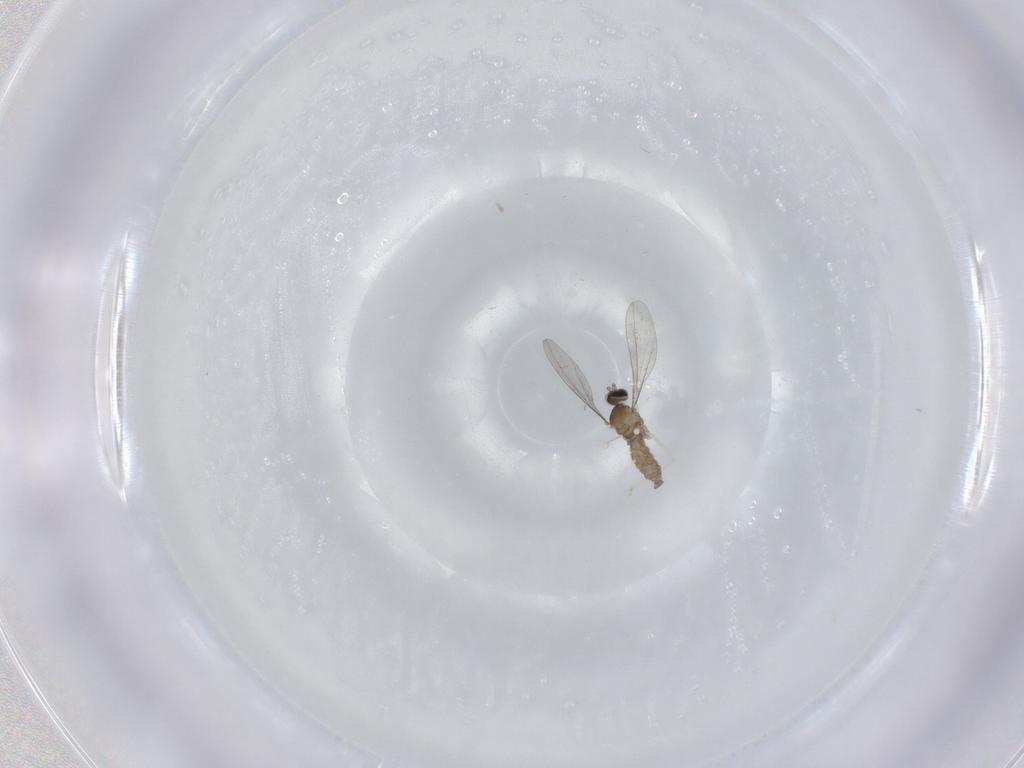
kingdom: Animalia
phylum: Arthropoda
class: Insecta
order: Diptera
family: Cecidomyiidae
